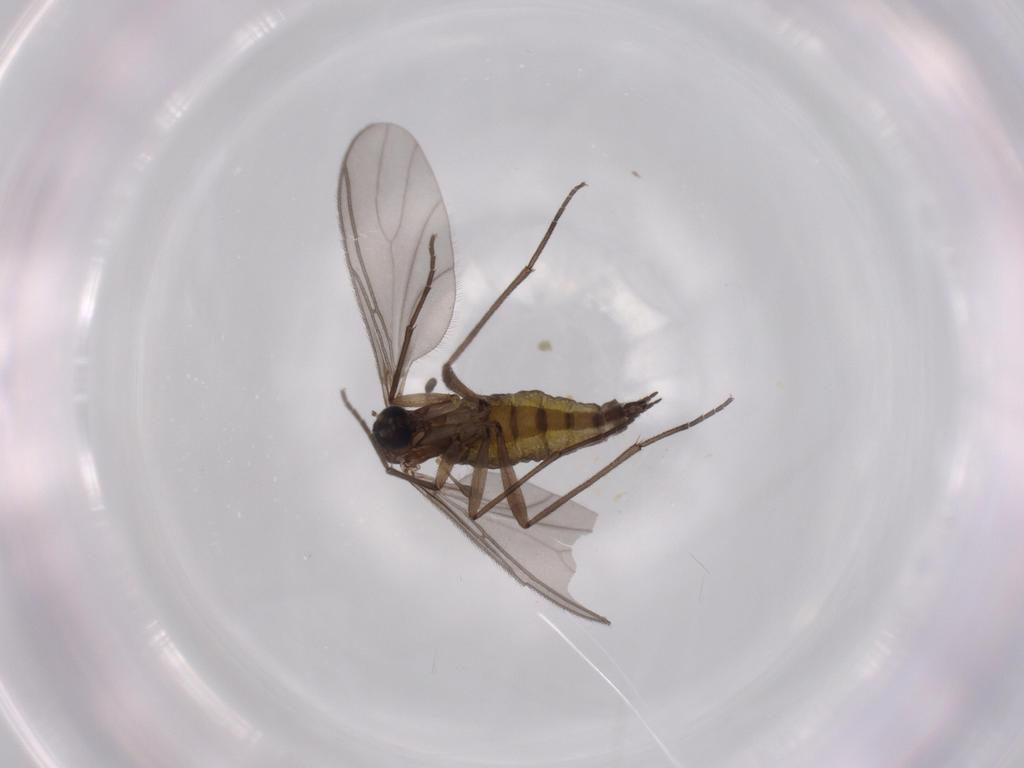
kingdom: Animalia
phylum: Arthropoda
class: Insecta
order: Diptera
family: Sciaridae
